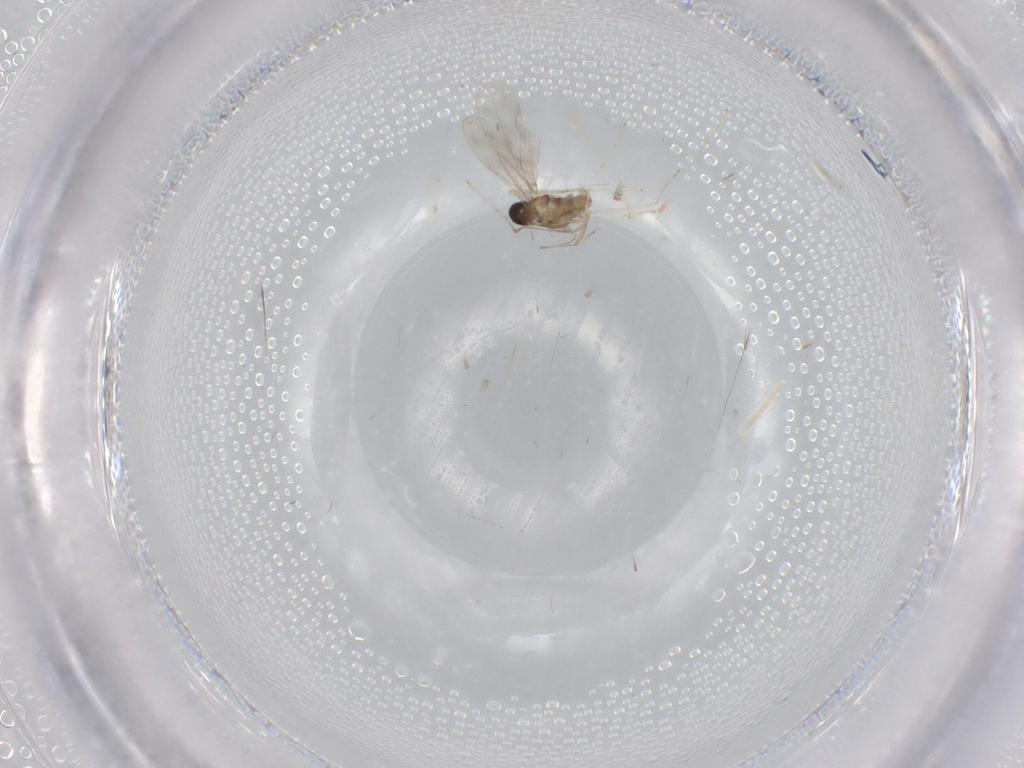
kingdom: Animalia
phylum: Arthropoda
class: Insecta
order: Diptera
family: Cecidomyiidae
